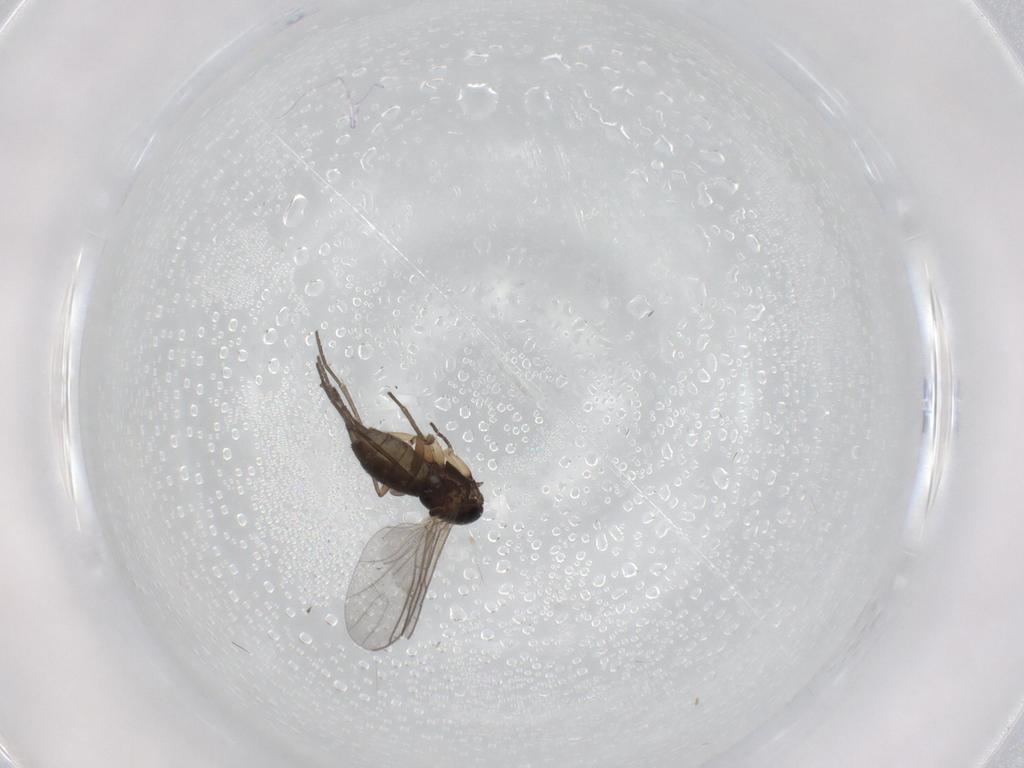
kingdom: Animalia
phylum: Arthropoda
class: Insecta
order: Diptera
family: Sciaridae
